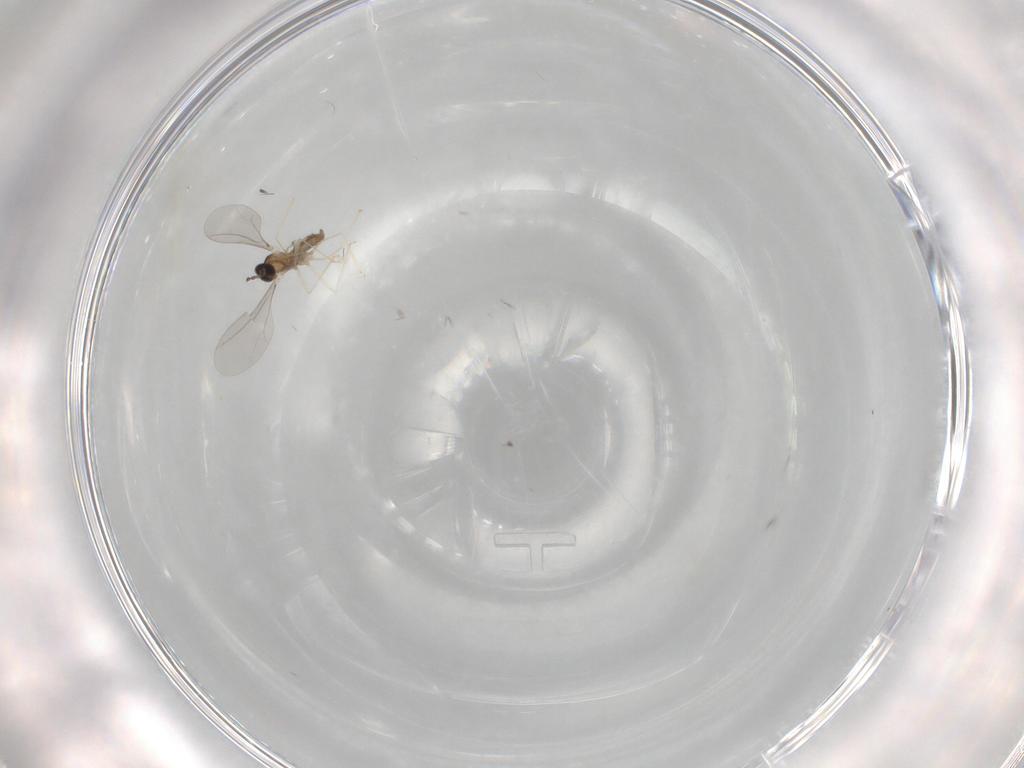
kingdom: Animalia
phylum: Arthropoda
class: Insecta
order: Diptera
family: Cecidomyiidae
